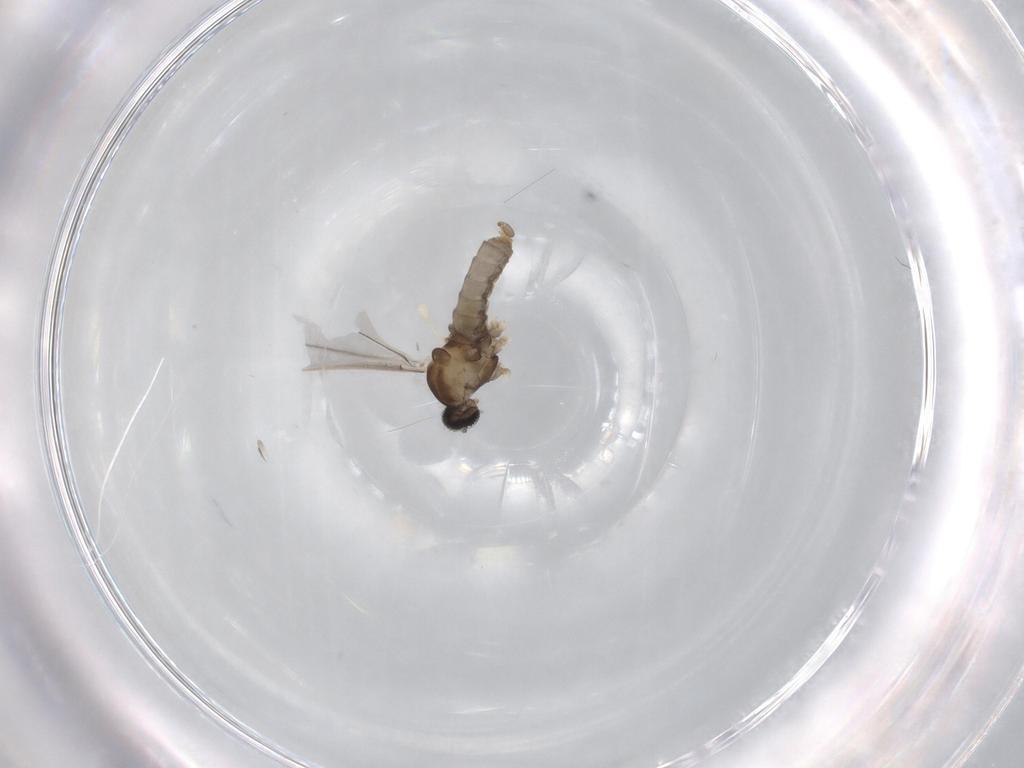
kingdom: Animalia
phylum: Arthropoda
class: Insecta
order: Diptera
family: Cecidomyiidae
